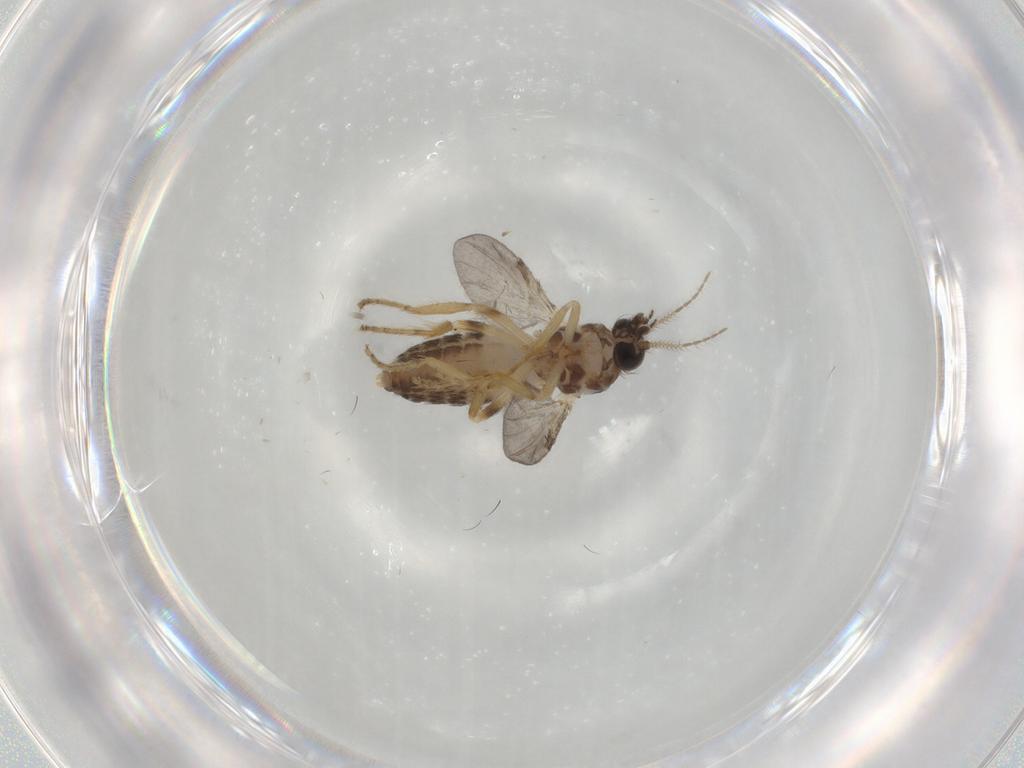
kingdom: Animalia
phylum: Arthropoda
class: Insecta
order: Diptera
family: Ceratopogonidae
